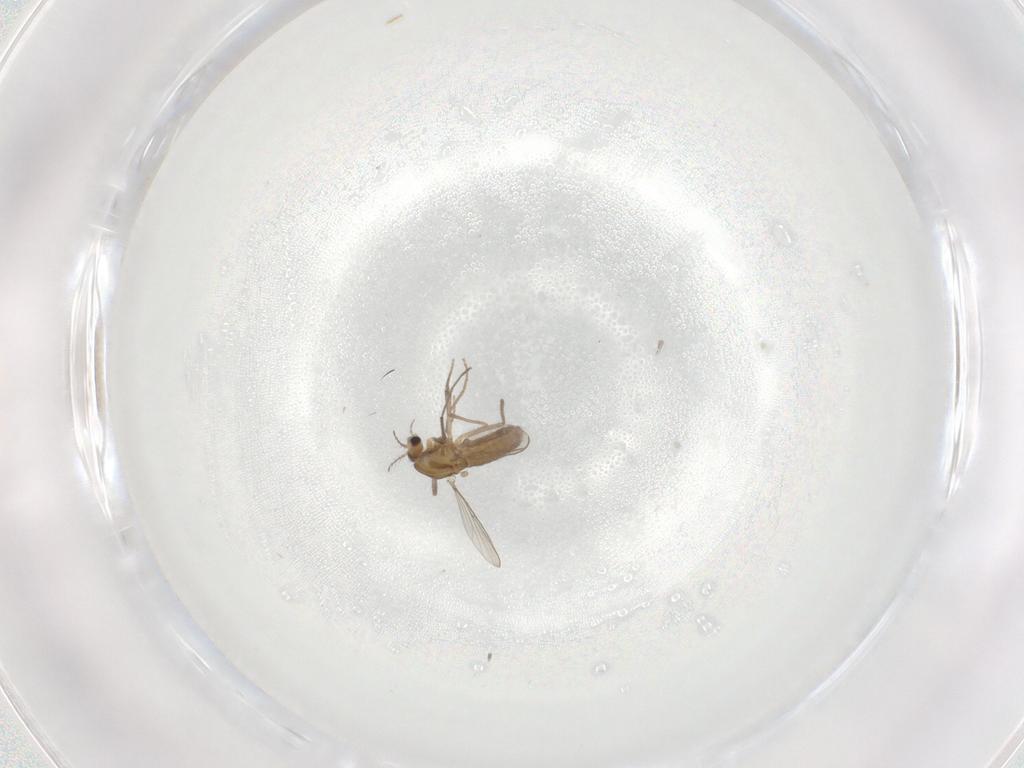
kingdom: Animalia
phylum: Arthropoda
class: Insecta
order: Diptera
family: Chironomidae
